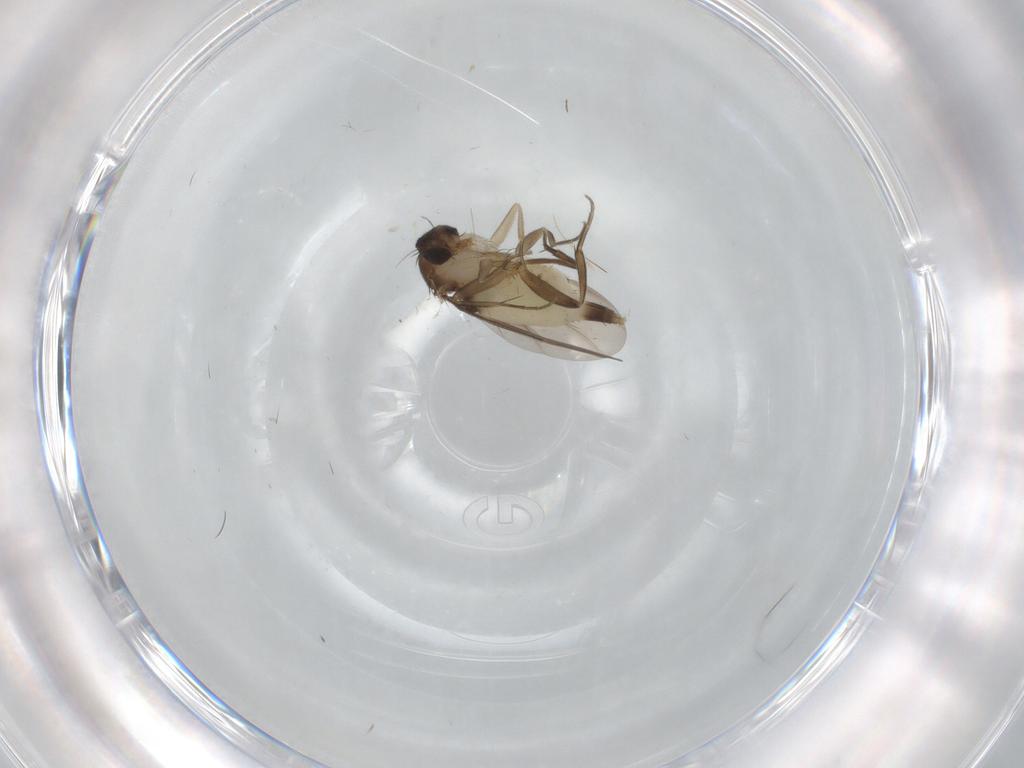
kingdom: Animalia
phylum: Arthropoda
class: Insecta
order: Diptera
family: Phoridae
